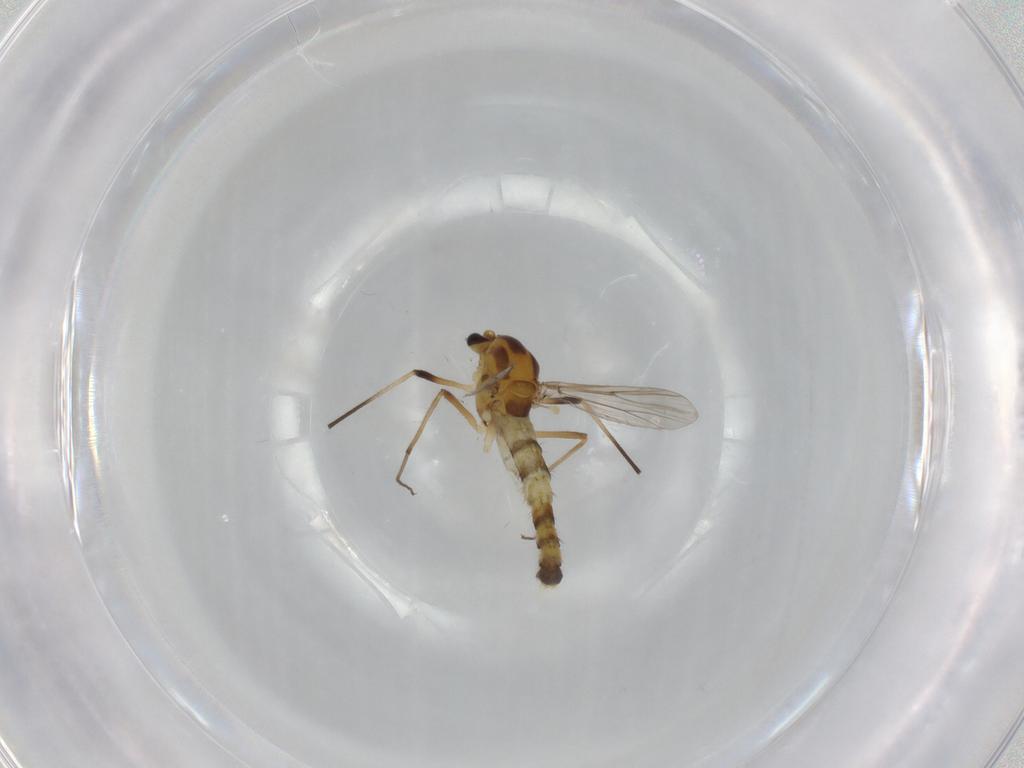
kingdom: Animalia
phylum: Arthropoda
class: Insecta
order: Diptera
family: Chironomidae
